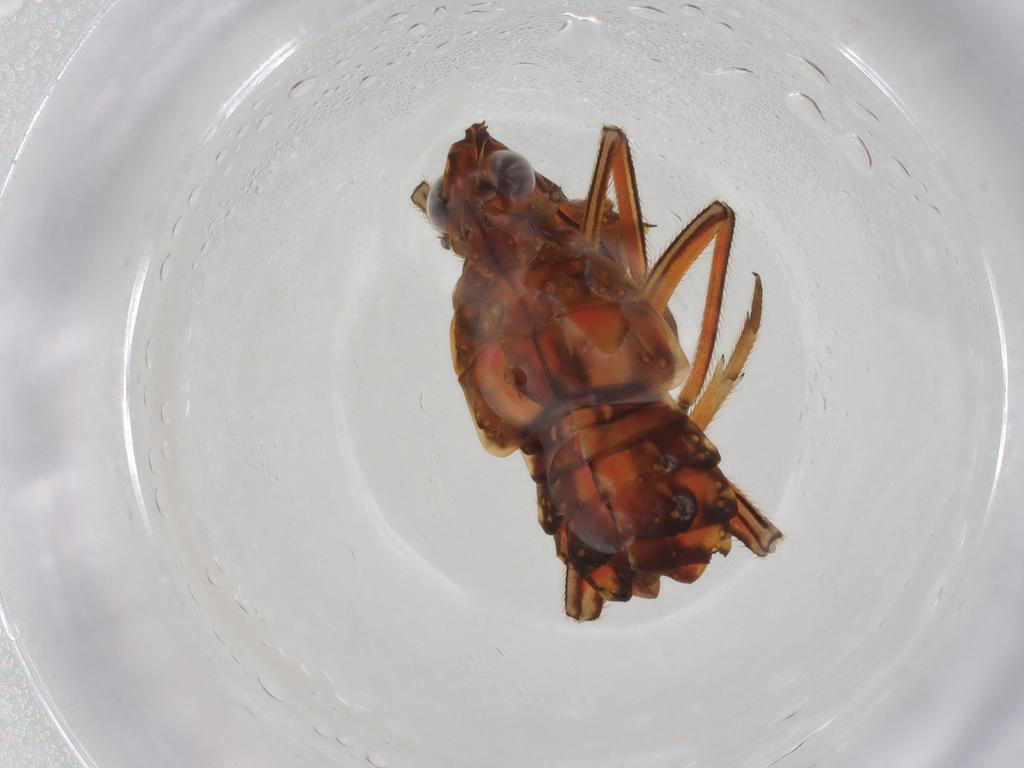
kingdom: Animalia
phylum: Arthropoda
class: Insecta
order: Hemiptera
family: Fulgoridae
